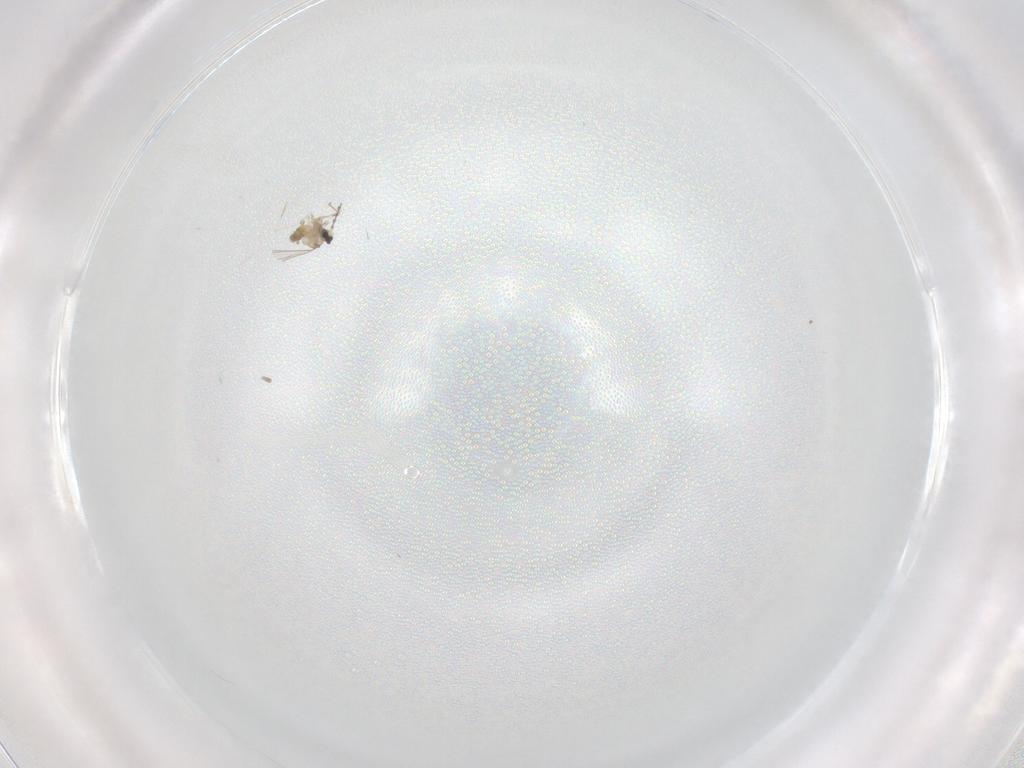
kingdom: Animalia
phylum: Arthropoda
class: Insecta
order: Diptera
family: Cecidomyiidae
